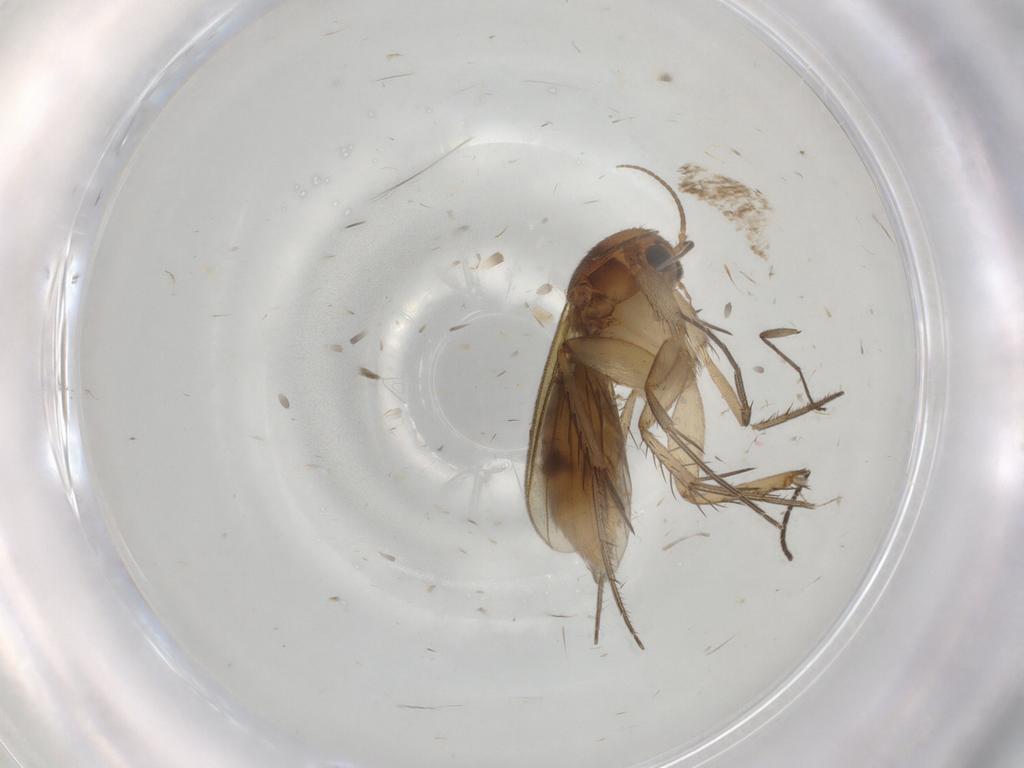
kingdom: Animalia
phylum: Arthropoda
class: Insecta
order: Diptera
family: Mycetophilidae
